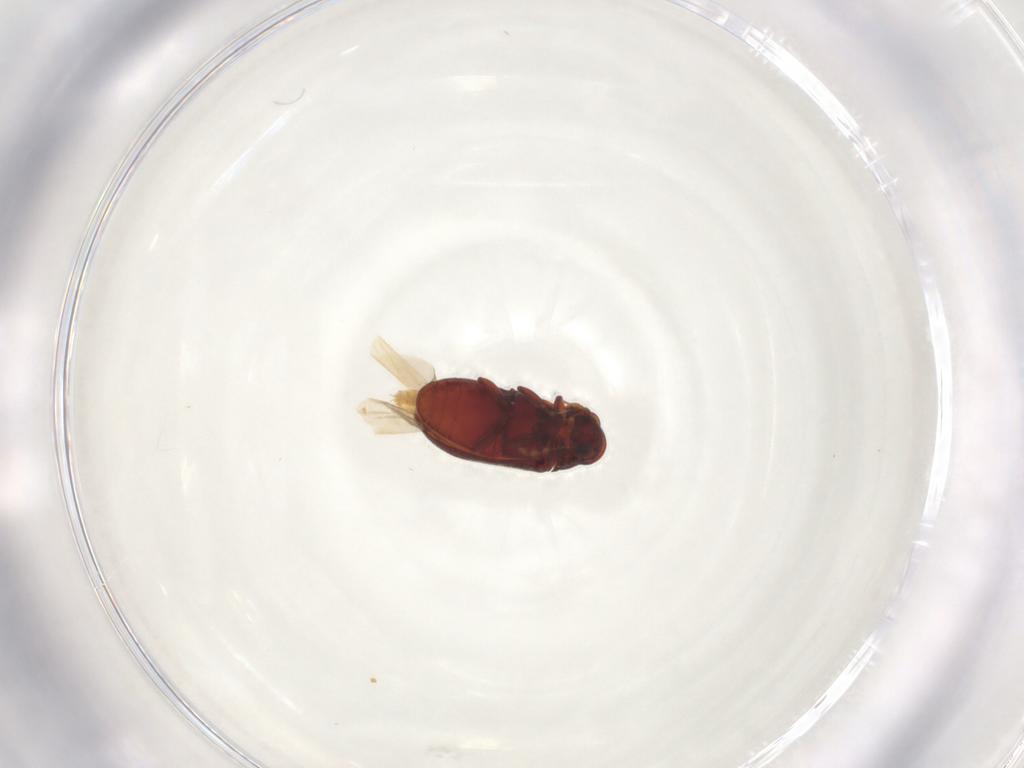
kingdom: Animalia
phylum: Arthropoda
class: Insecta
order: Coleoptera
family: Ptinidae
